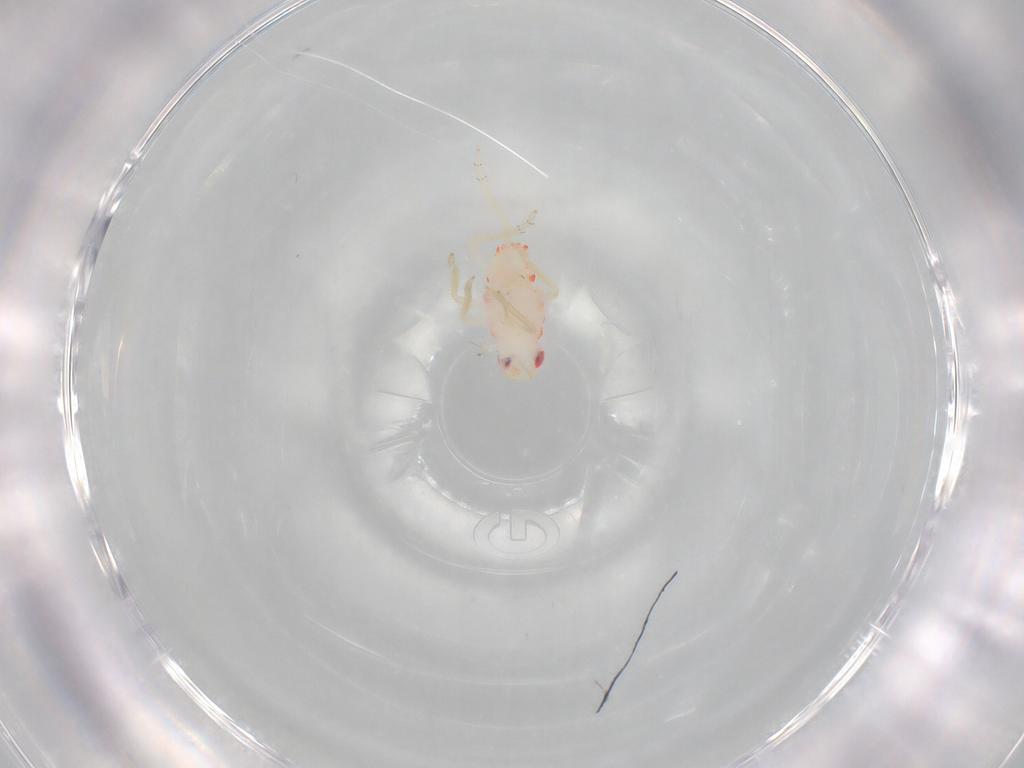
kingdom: Animalia
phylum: Arthropoda
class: Insecta
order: Hemiptera
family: Tropiduchidae
